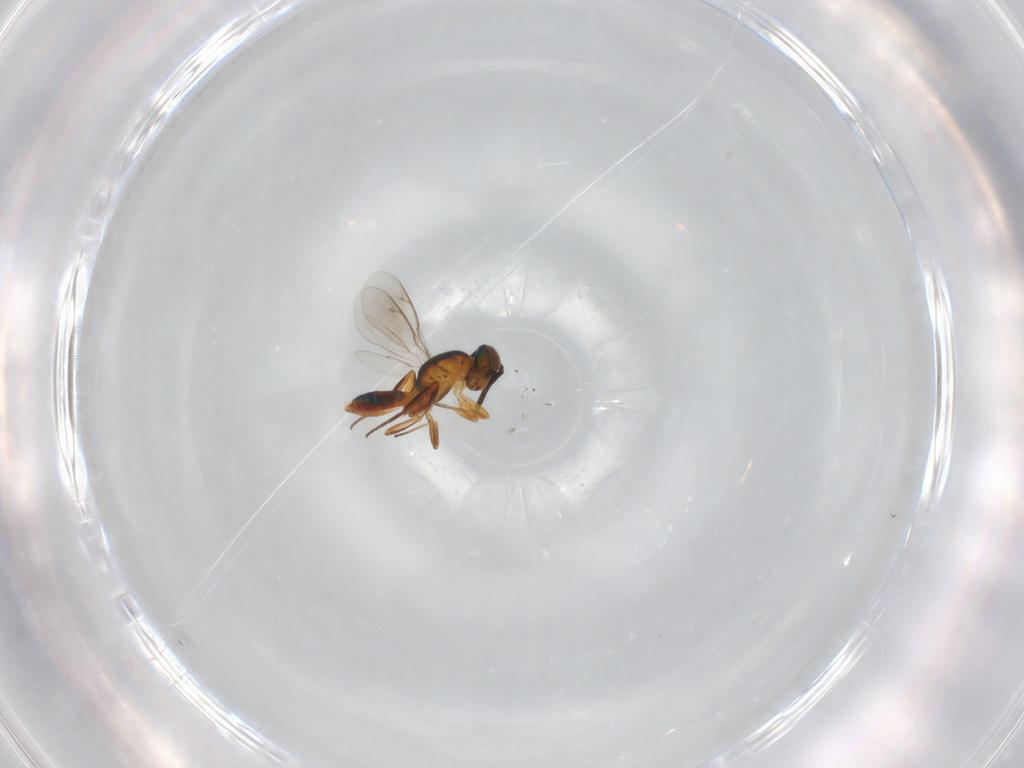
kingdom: Animalia
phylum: Arthropoda
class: Insecta
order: Hymenoptera
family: Eupelmidae
